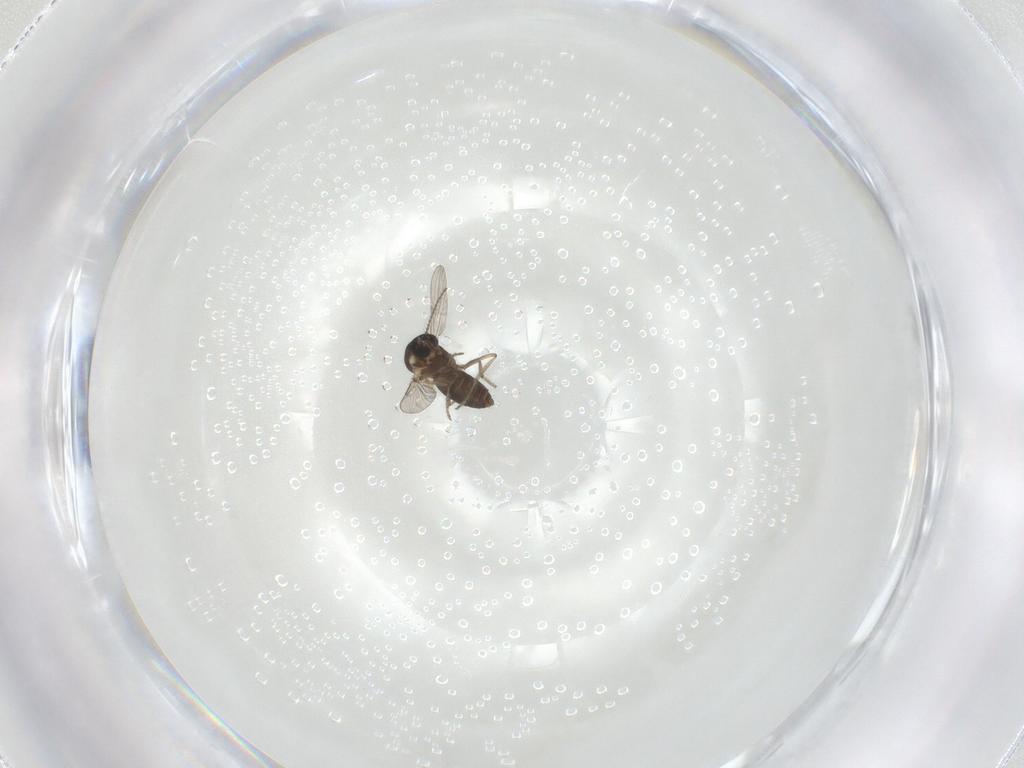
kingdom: Animalia
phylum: Arthropoda
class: Insecta
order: Diptera
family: Ceratopogonidae
